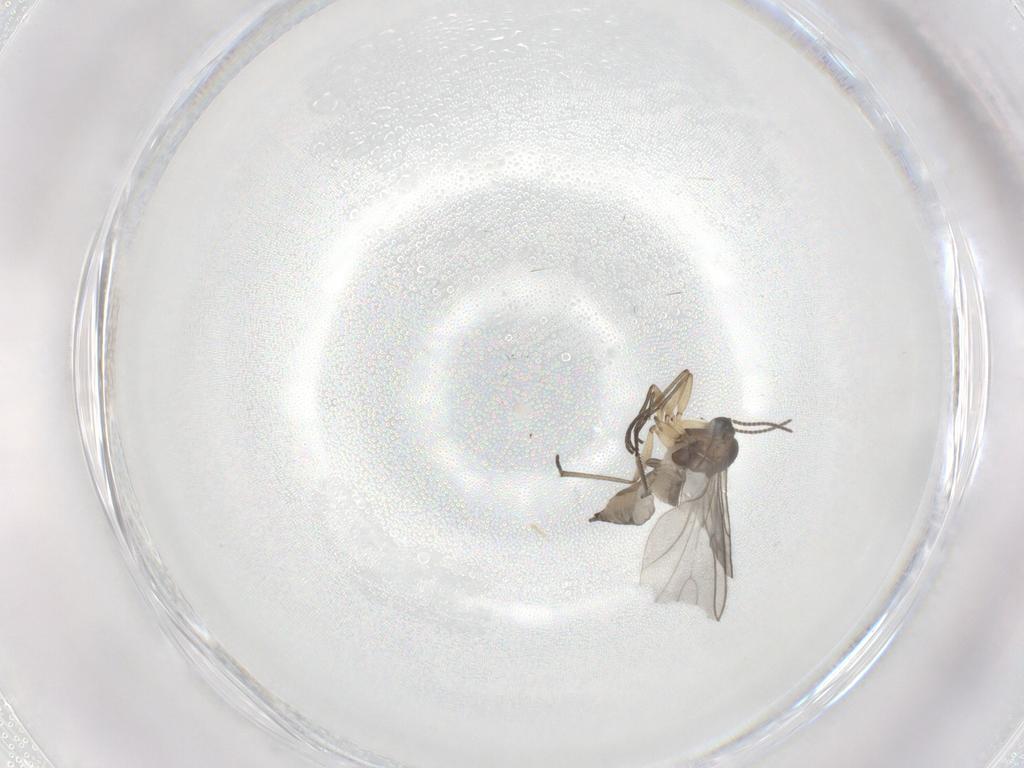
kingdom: Animalia
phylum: Arthropoda
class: Insecta
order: Diptera
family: Sciaridae
